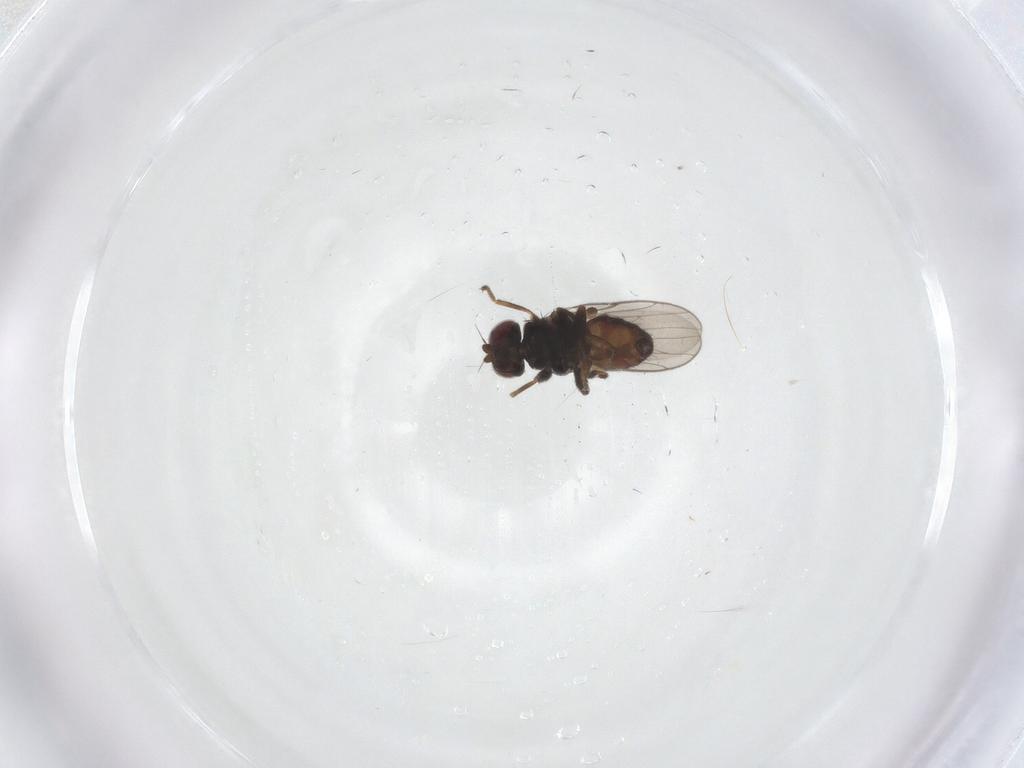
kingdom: Animalia
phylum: Arthropoda
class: Insecta
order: Diptera
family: Chloropidae
